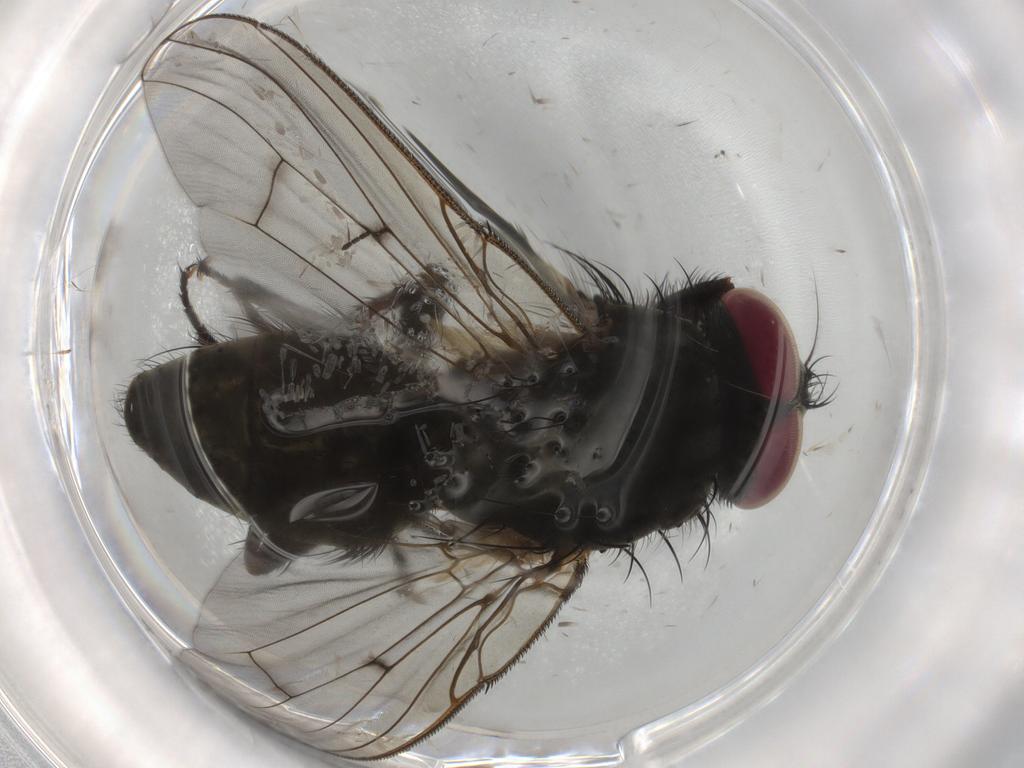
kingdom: Animalia
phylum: Arthropoda
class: Insecta
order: Diptera
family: Muscidae
